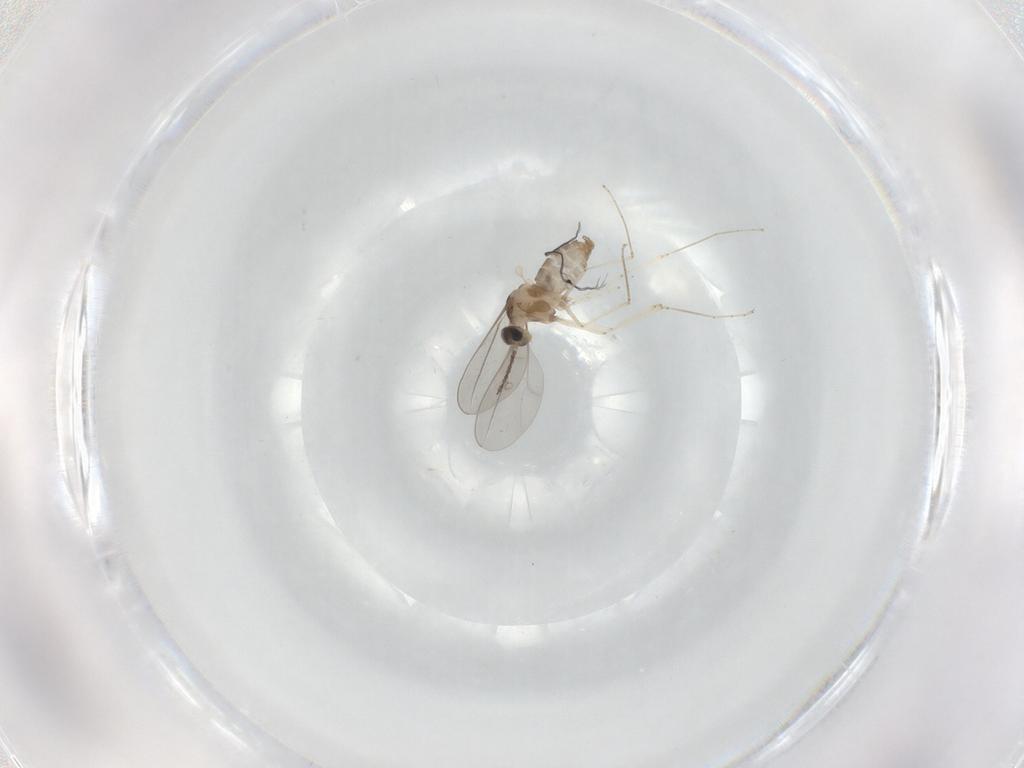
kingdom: Animalia
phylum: Arthropoda
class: Insecta
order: Diptera
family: Cecidomyiidae
